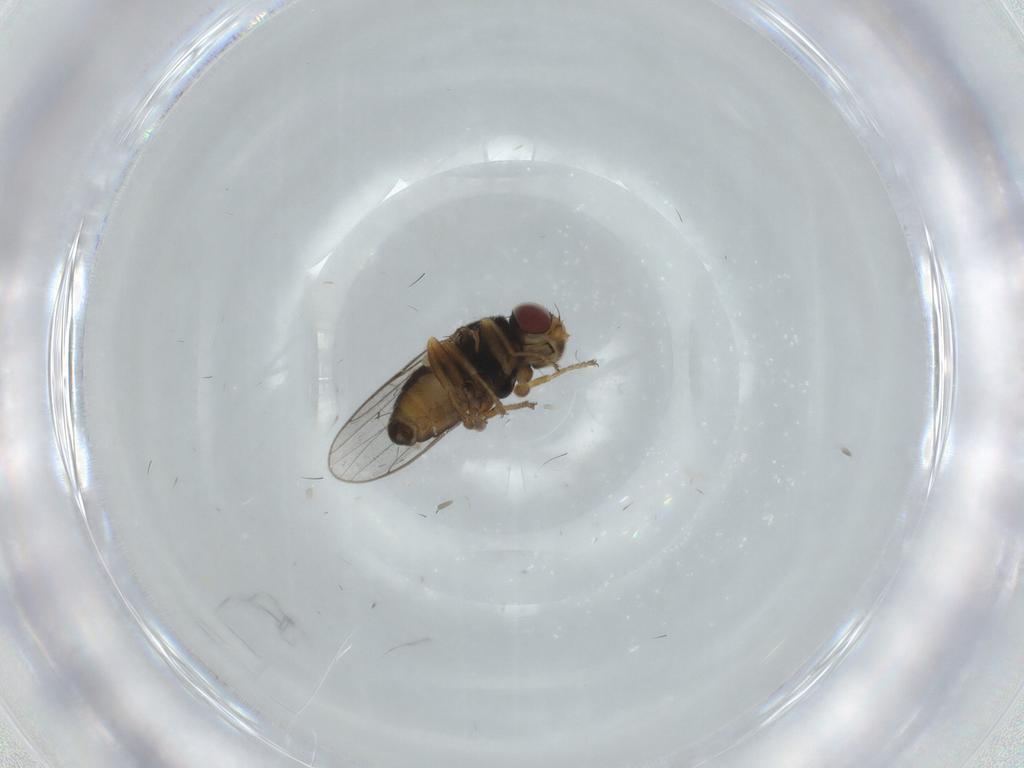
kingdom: Animalia
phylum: Arthropoda
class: Insecta
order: Diptera
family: Chloropidae
